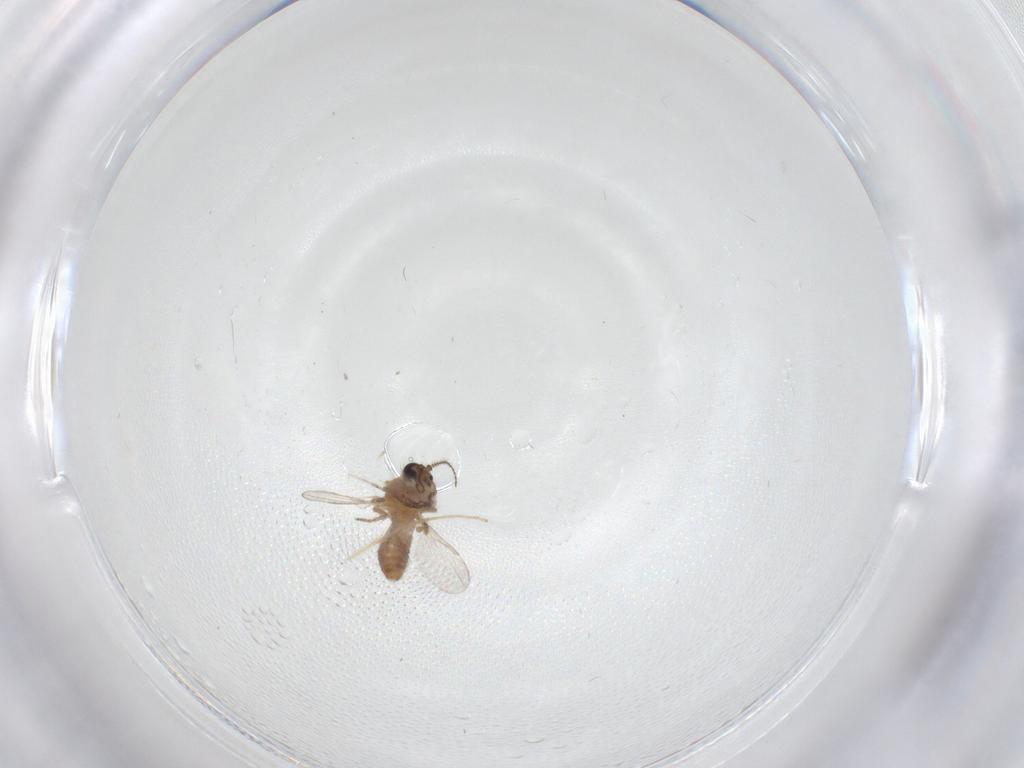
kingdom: Animalia
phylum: Arthropoda
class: Insecta
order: Diptera
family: Ceratopogonidae
